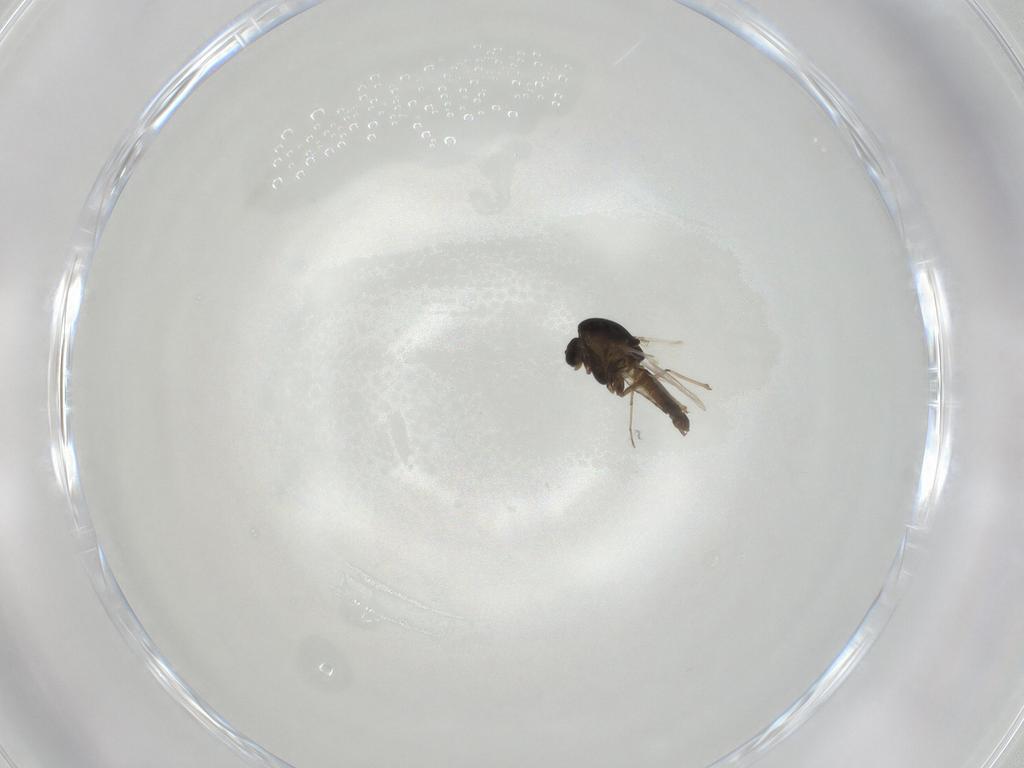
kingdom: Animalia
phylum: Arthropoda
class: Insecta
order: Diptera
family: Chironomidae
